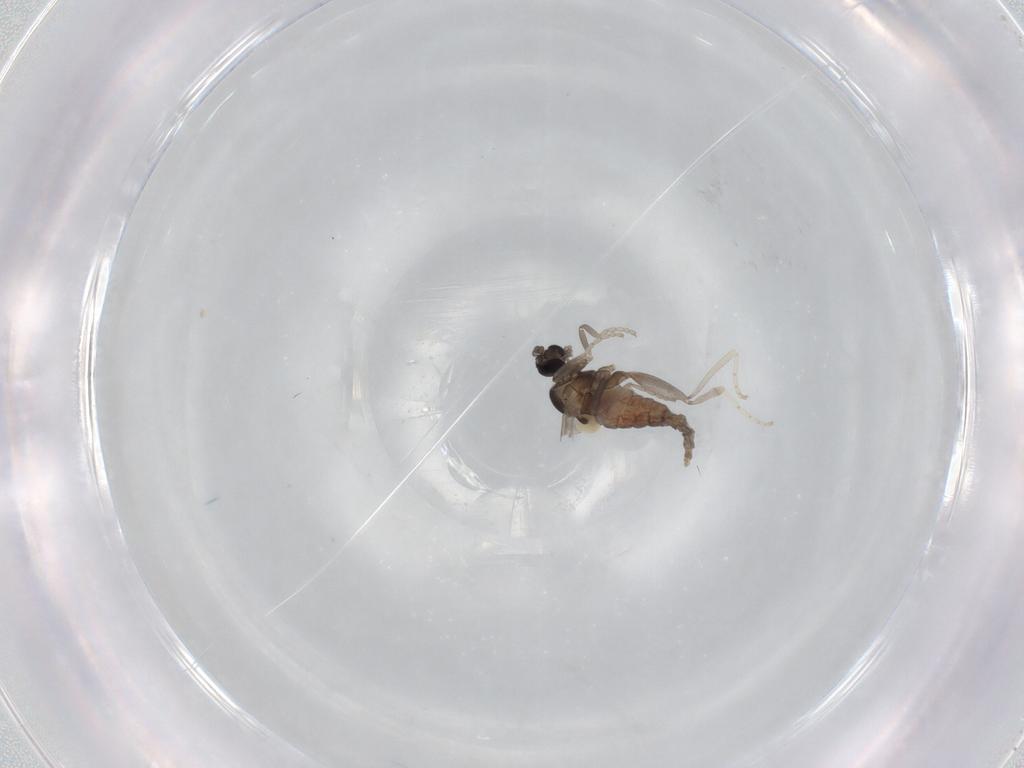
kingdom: Animalia
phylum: Arthropoda
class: Insecta
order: Diptera
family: Cecidomyiidae
